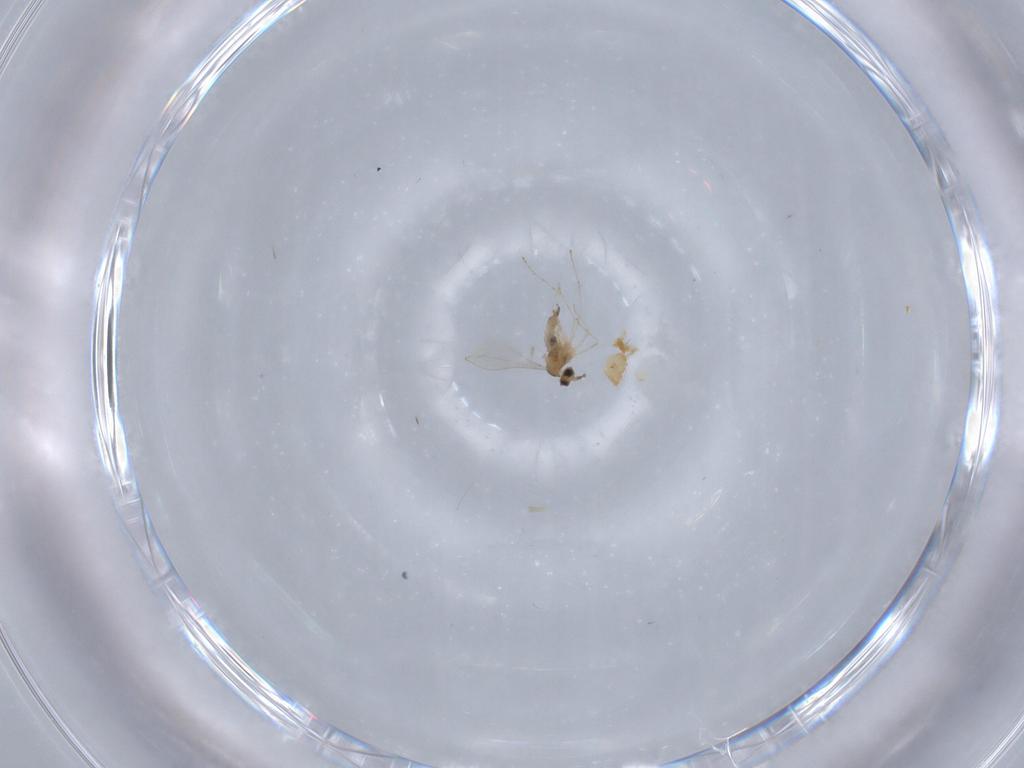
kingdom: Animalia
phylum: Arthropoda
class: Insecta
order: Diptera
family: Cecidomyiidae
